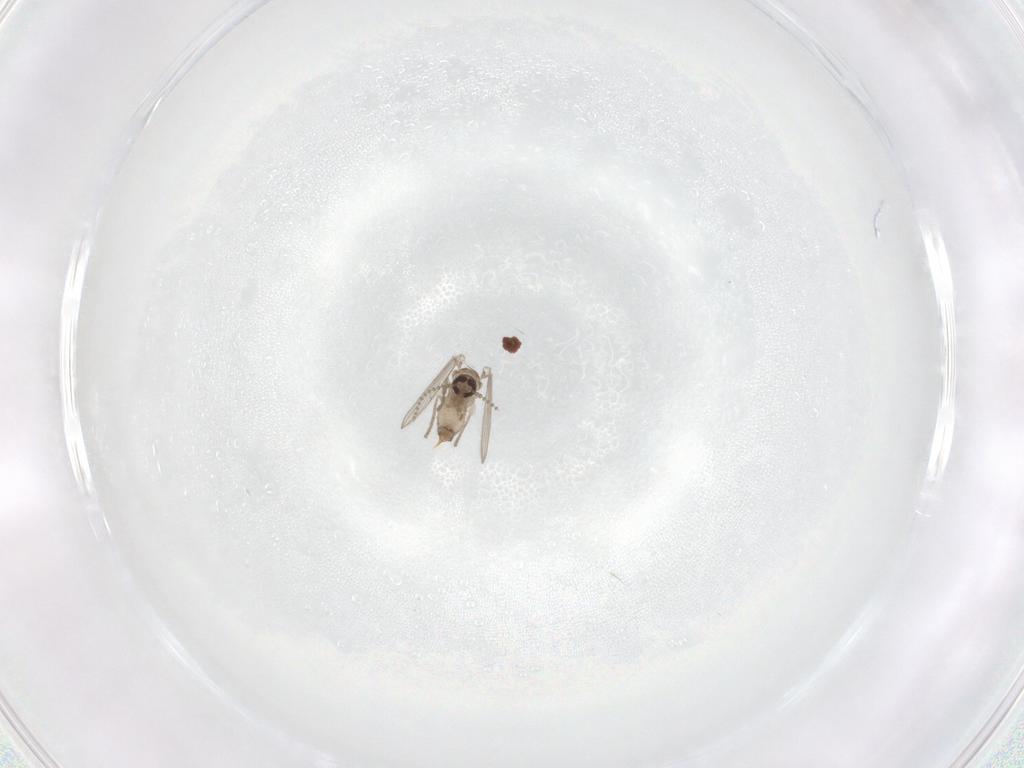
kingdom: Animalia
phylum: Arthropoda
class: Insecta
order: Diptera
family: Psychodidae
